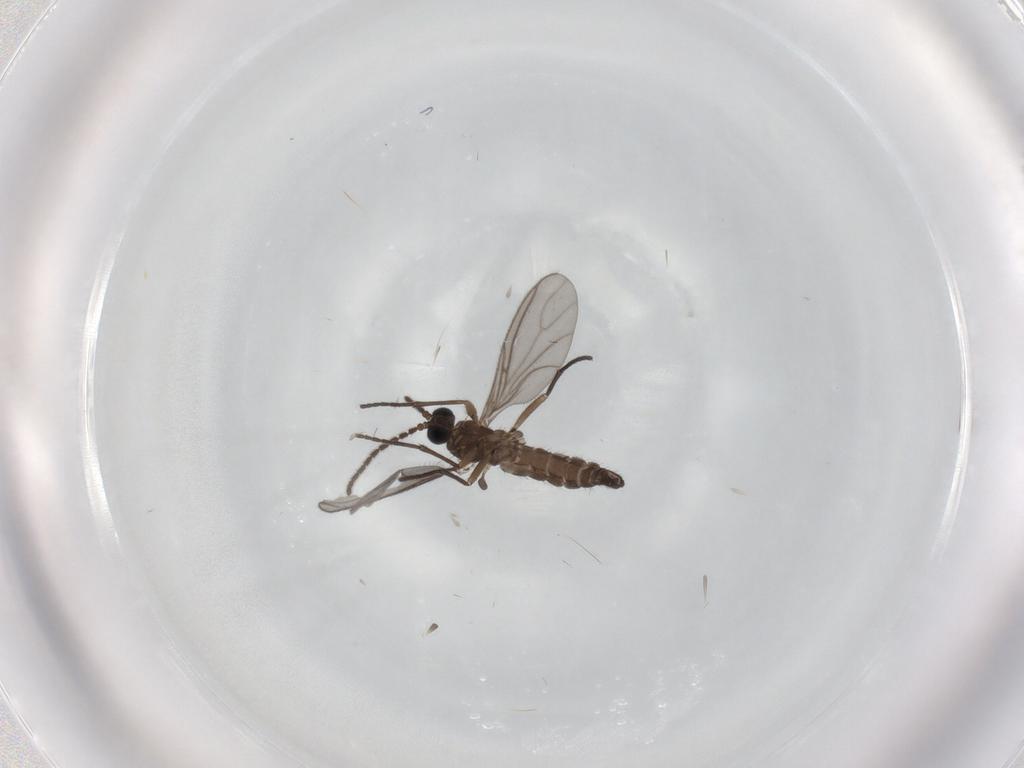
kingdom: Animalia
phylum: Arthropoda
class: Insecta
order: Diptera
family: Sciaridae
